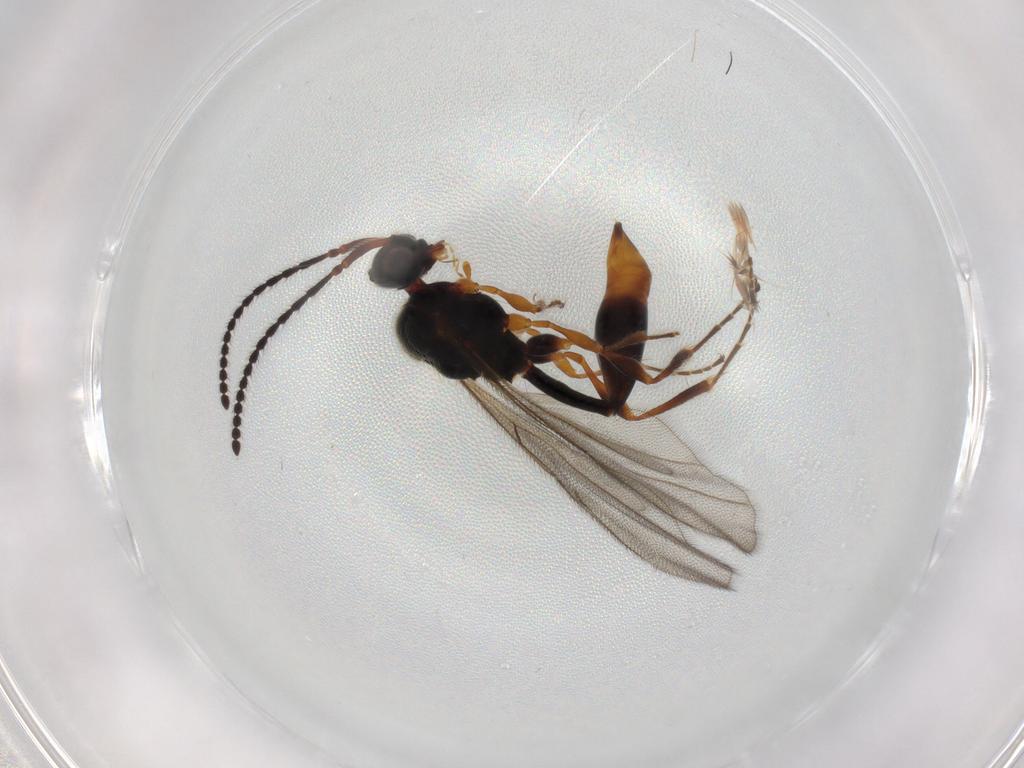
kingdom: Animalia
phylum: Arthropoda
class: Insecta
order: Hymenoptera
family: Diapriidae
